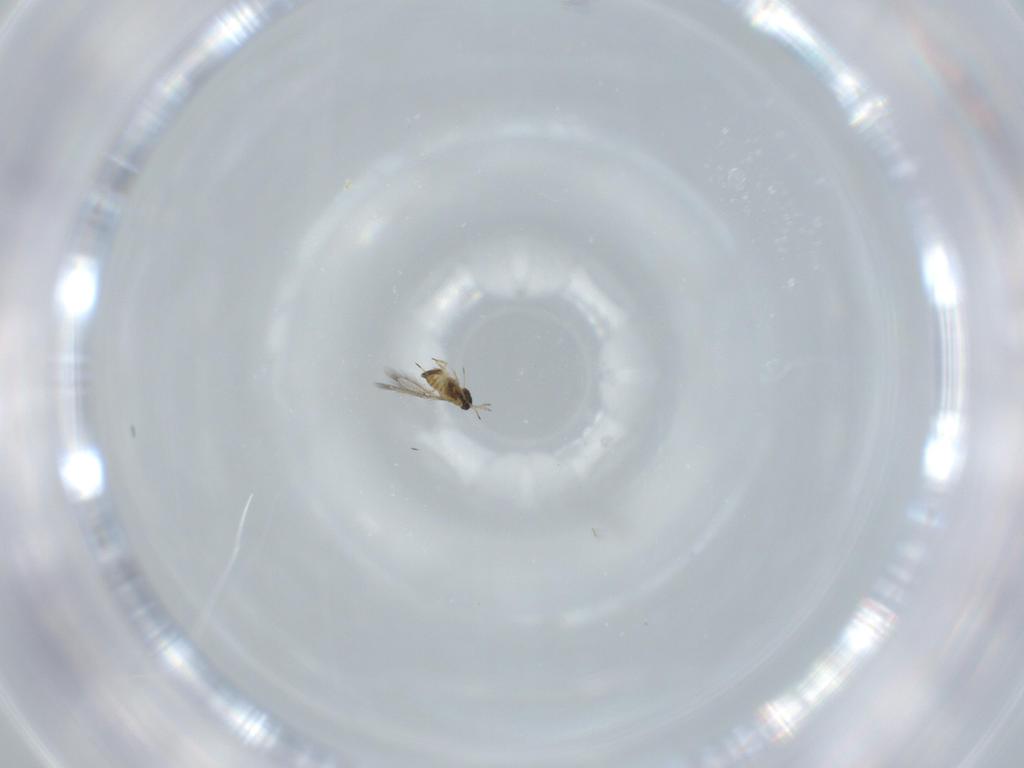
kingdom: Animalia
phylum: Arthropoda
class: Insecta
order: Hymenoptera
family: Trichogrammatidae
